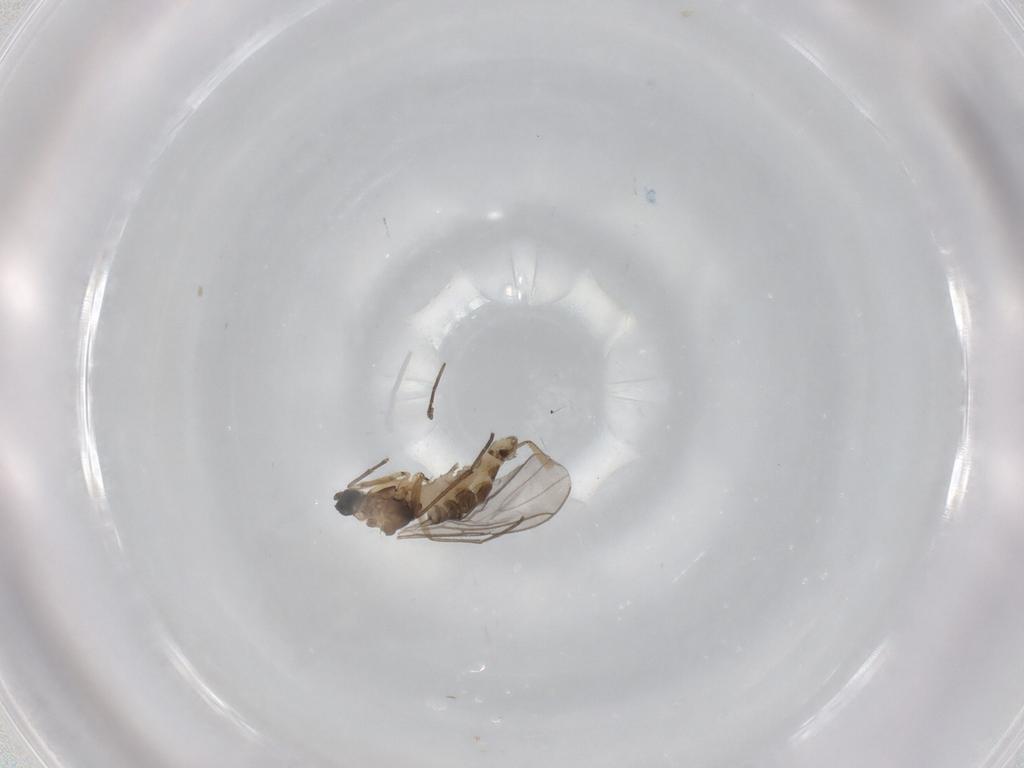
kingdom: Animalia
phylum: Arthropoda
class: Insecta
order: Diptera
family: Sciaridae
